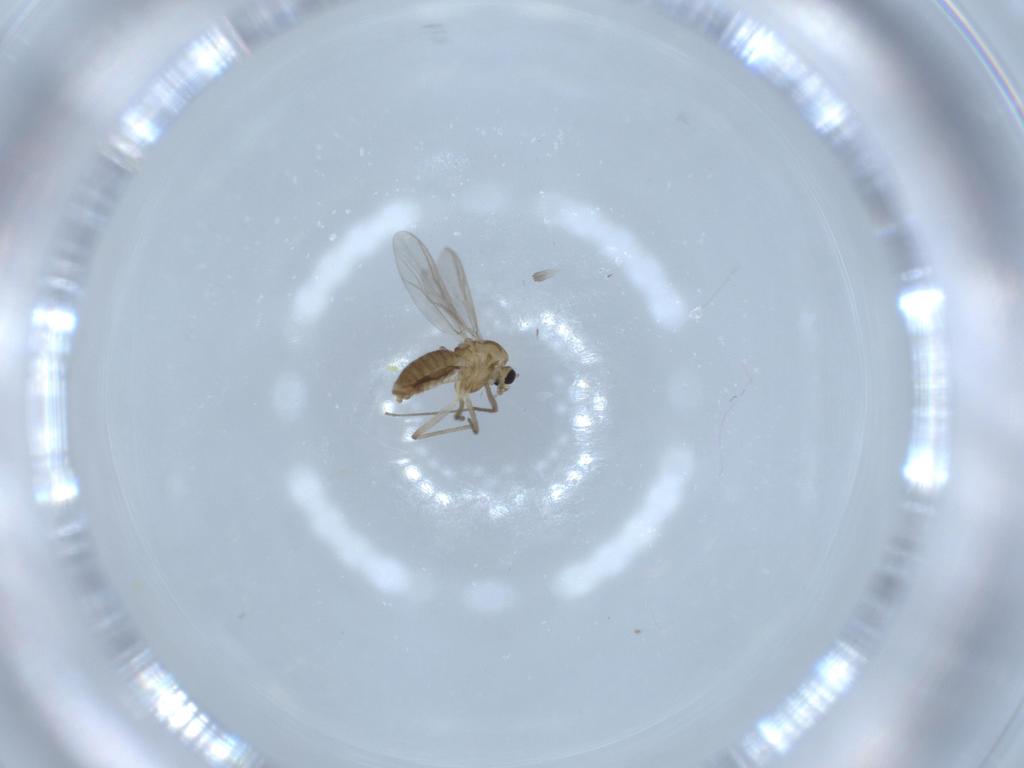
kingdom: Animalia
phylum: Arthropoda
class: Insecta
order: Diptera
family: Chironomidae
